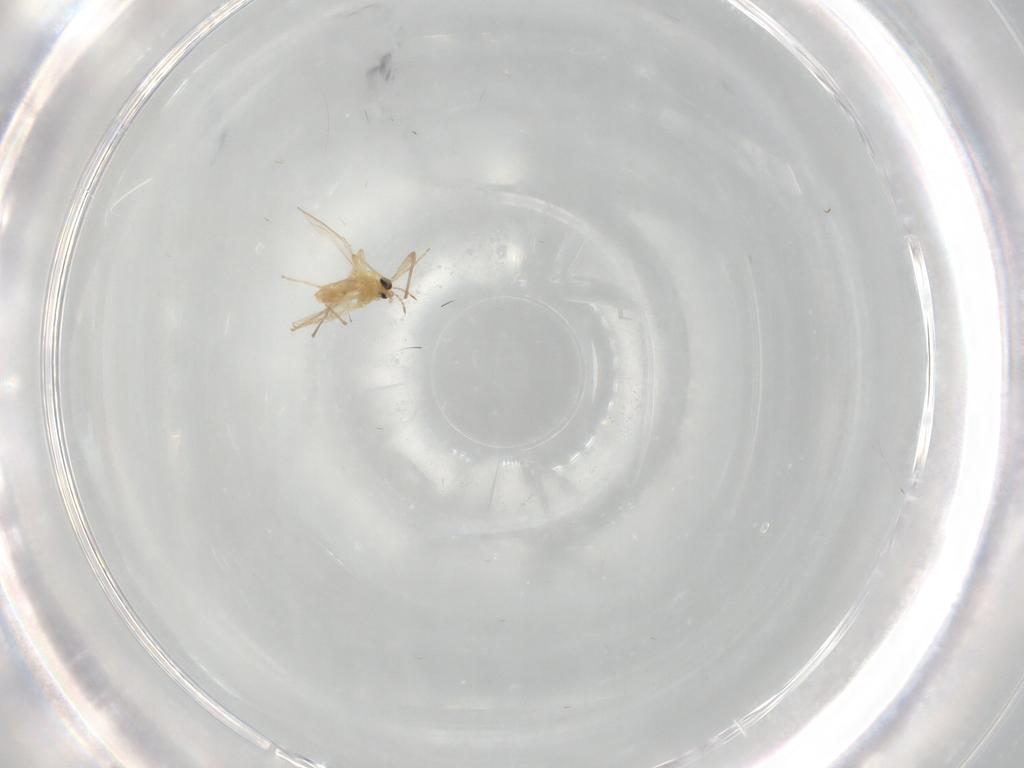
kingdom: Animalia
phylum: Arthropoda
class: Insecta
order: Diptera
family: Chironomidae
